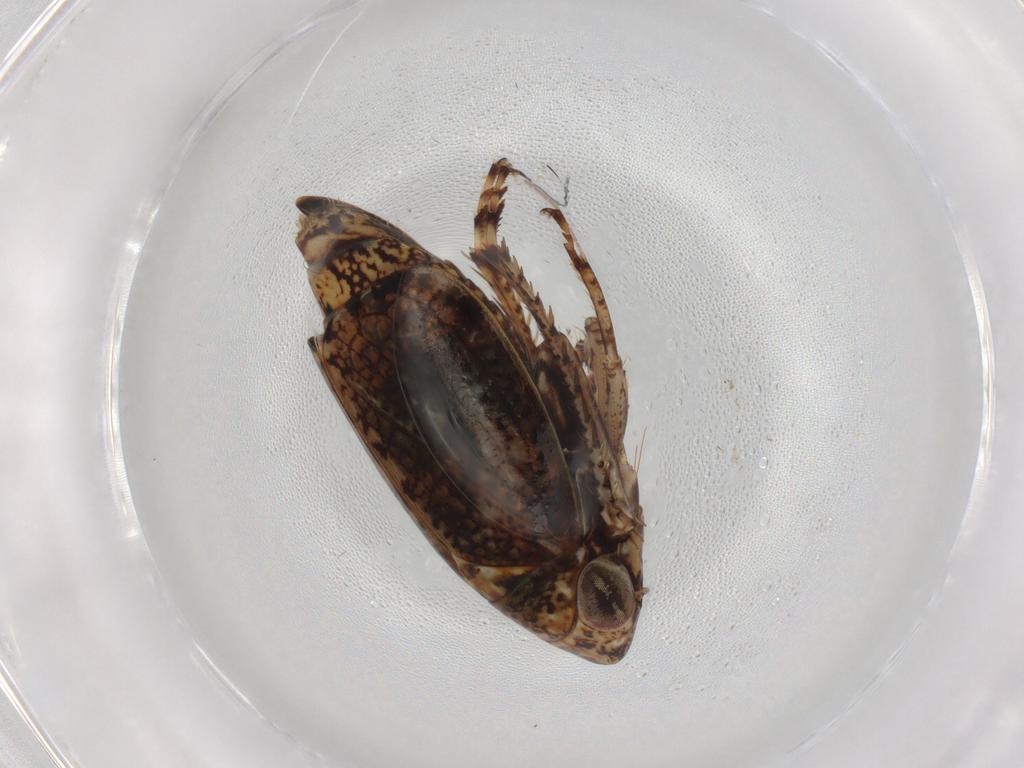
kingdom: Animalia
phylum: Arthropoda
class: Insecta
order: Hemiptera
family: Cicadellidae
